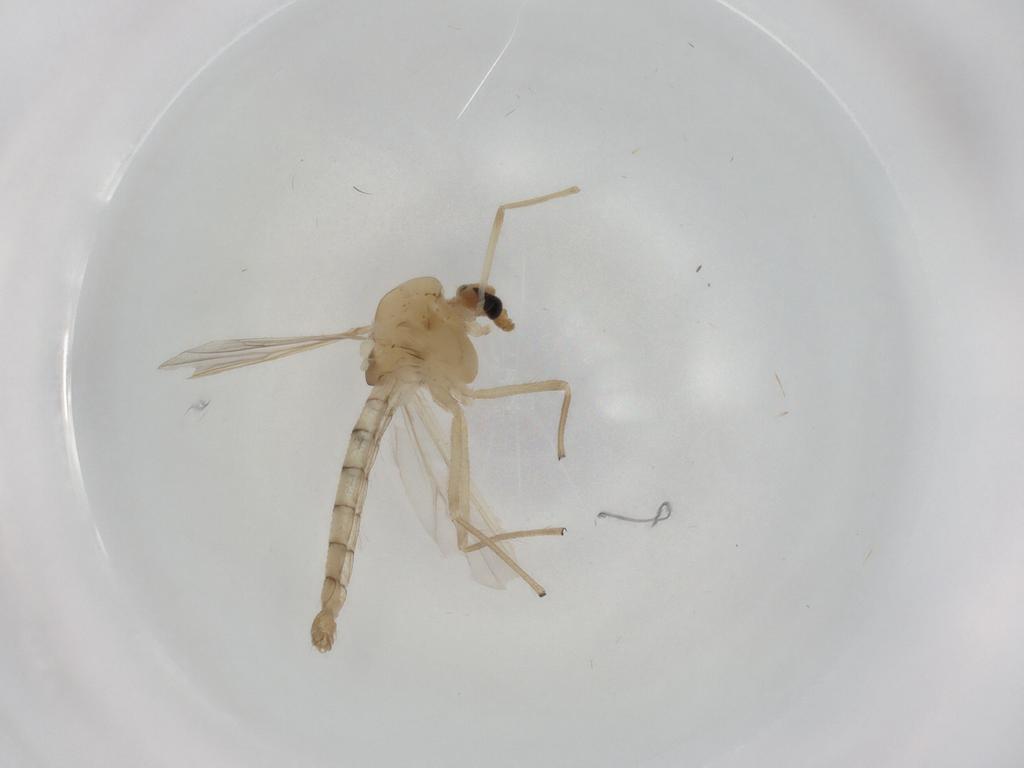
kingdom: Animalia
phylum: Arthropoda
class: Insecta
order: Diptera
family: Chironomidae
